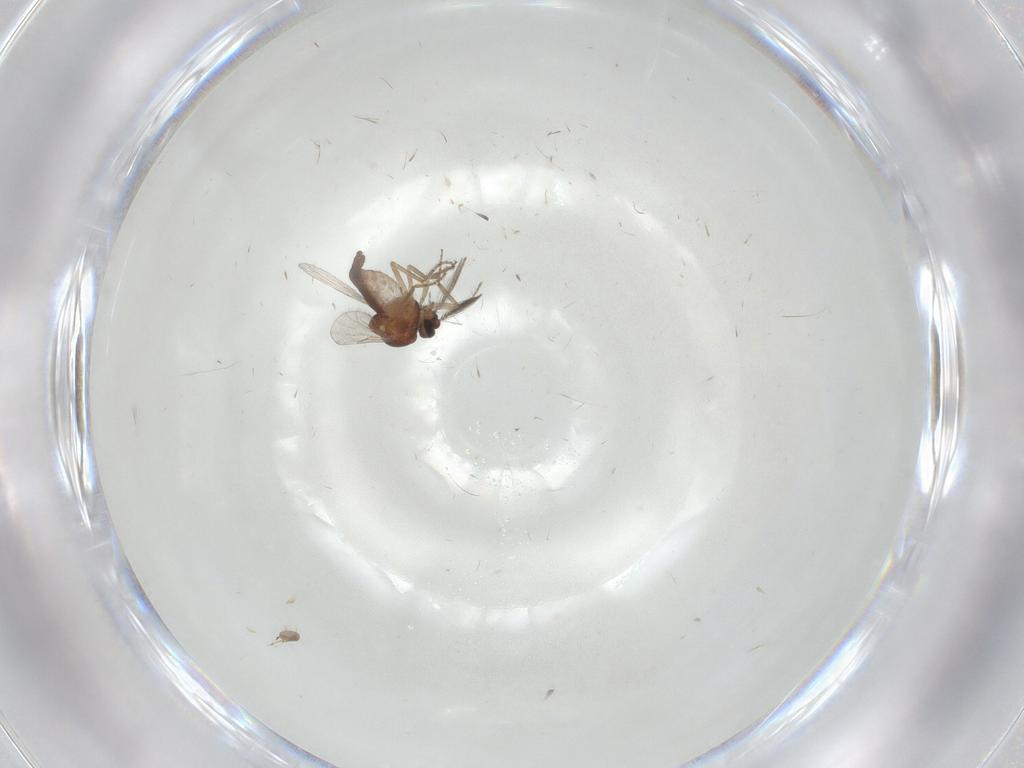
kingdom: Animalia
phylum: Arthropoda
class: Insecta
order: Diptera
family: Ceratopogonidae
